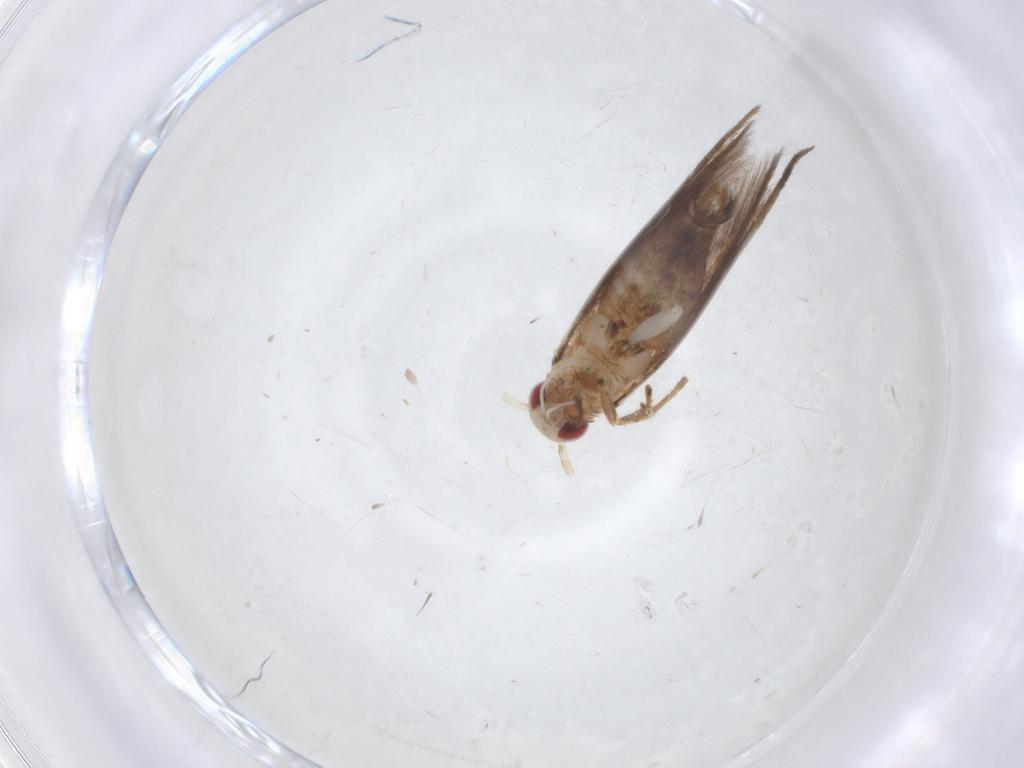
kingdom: Animalia
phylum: Arthropoda
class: Insecta
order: Lepidoptera
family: Cosmopterigidae
